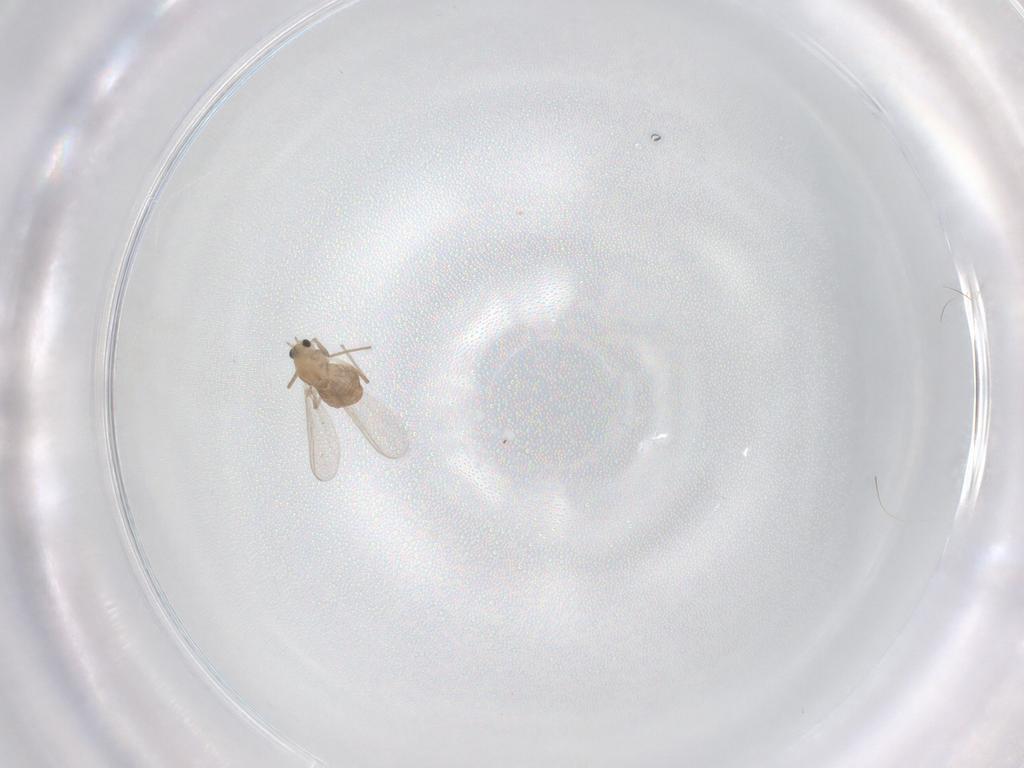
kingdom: Animalia
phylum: Arthropoda
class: Insecta
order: Diptera
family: Chironomidae
